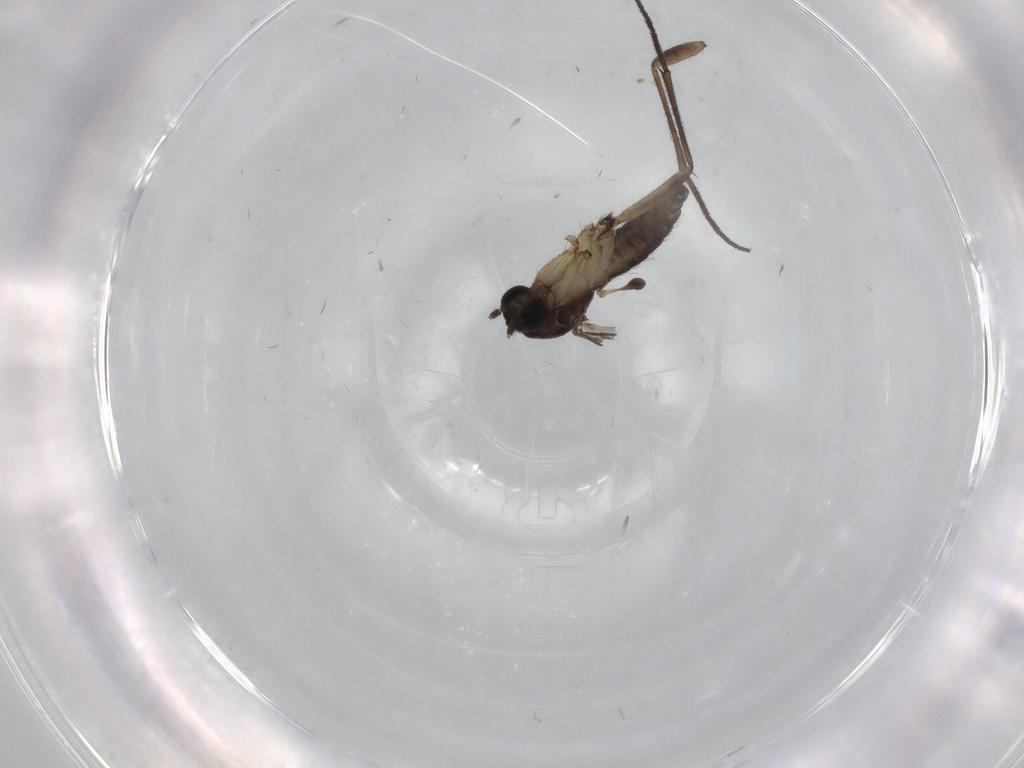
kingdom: Animalia
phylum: Arthropoda
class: Insecta
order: Diptera
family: Sciaridae
